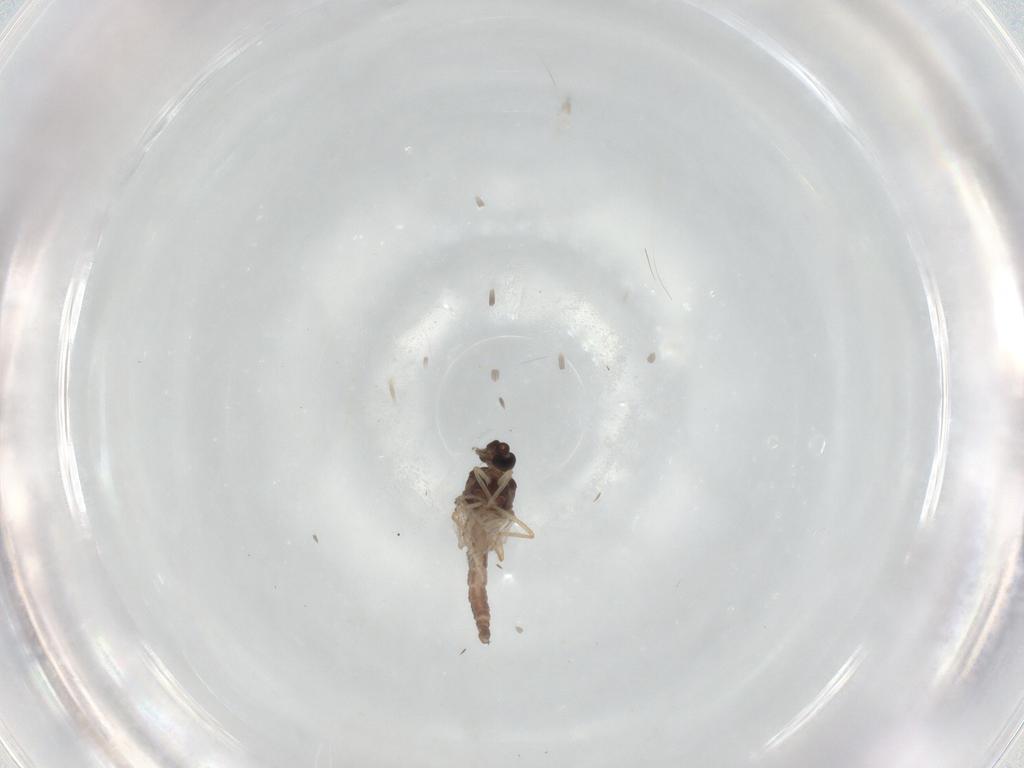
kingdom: Animalia
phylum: Arthropoda
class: Insecta
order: Diptera
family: Ceratopogonidae
